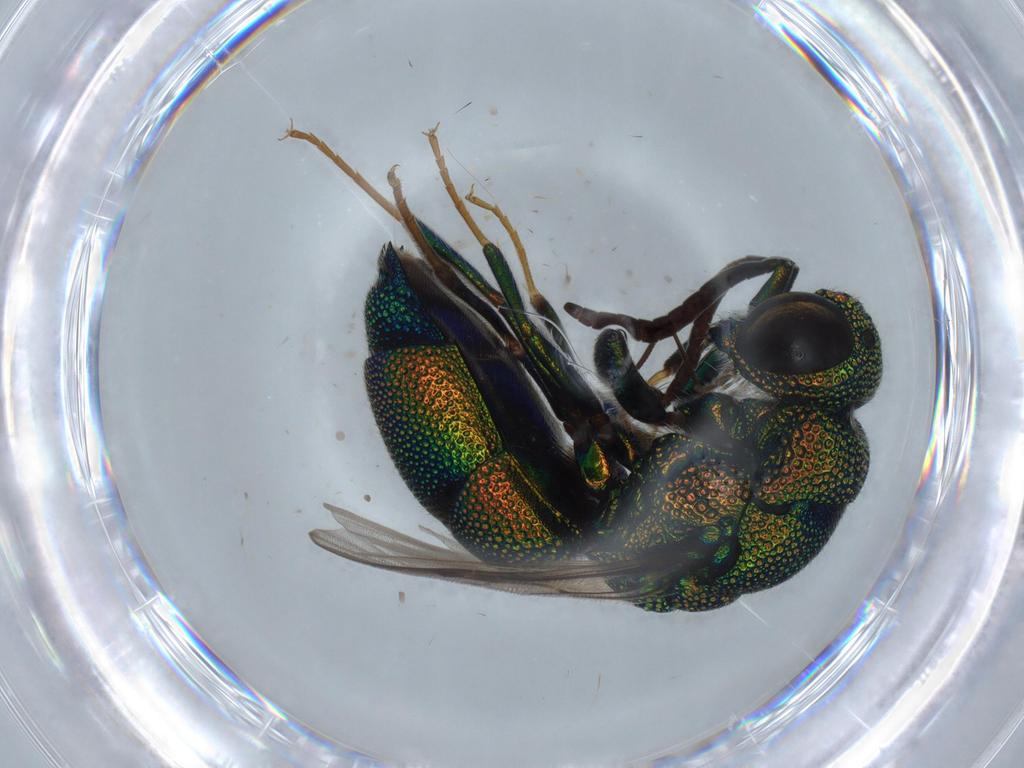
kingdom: Animalia
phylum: Arthropoda
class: Insecta
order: Hymenoptera
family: Chrysididae
